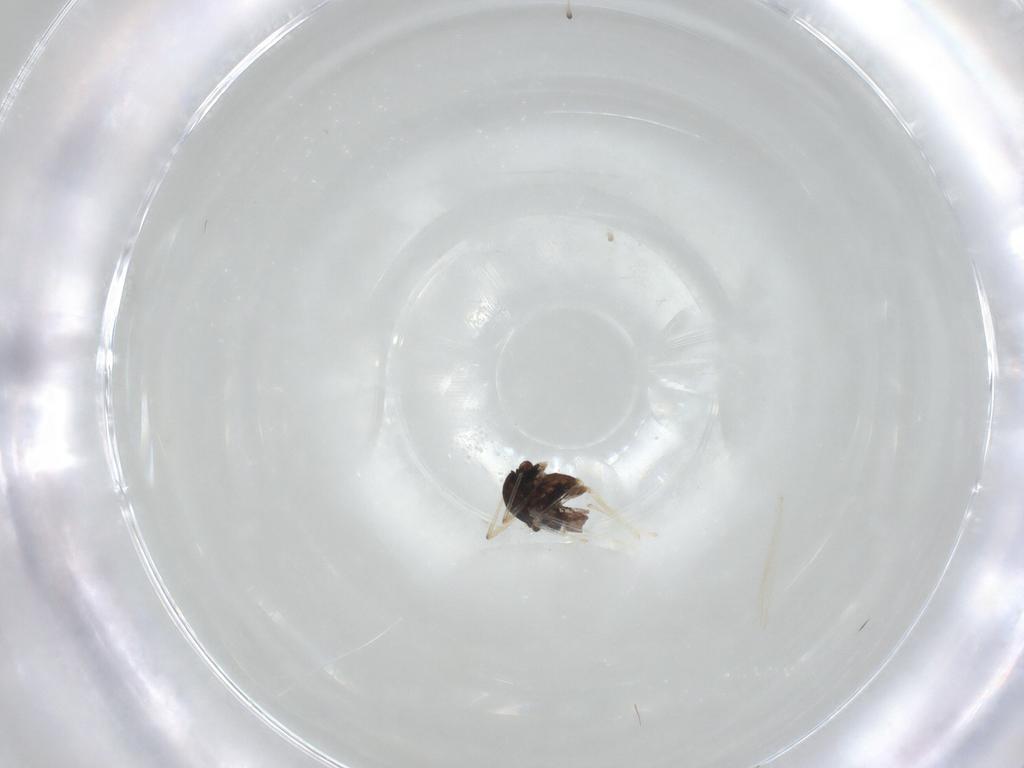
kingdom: Animalia
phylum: Arthropoda
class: Insecta
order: Diptera
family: Chironomidae
